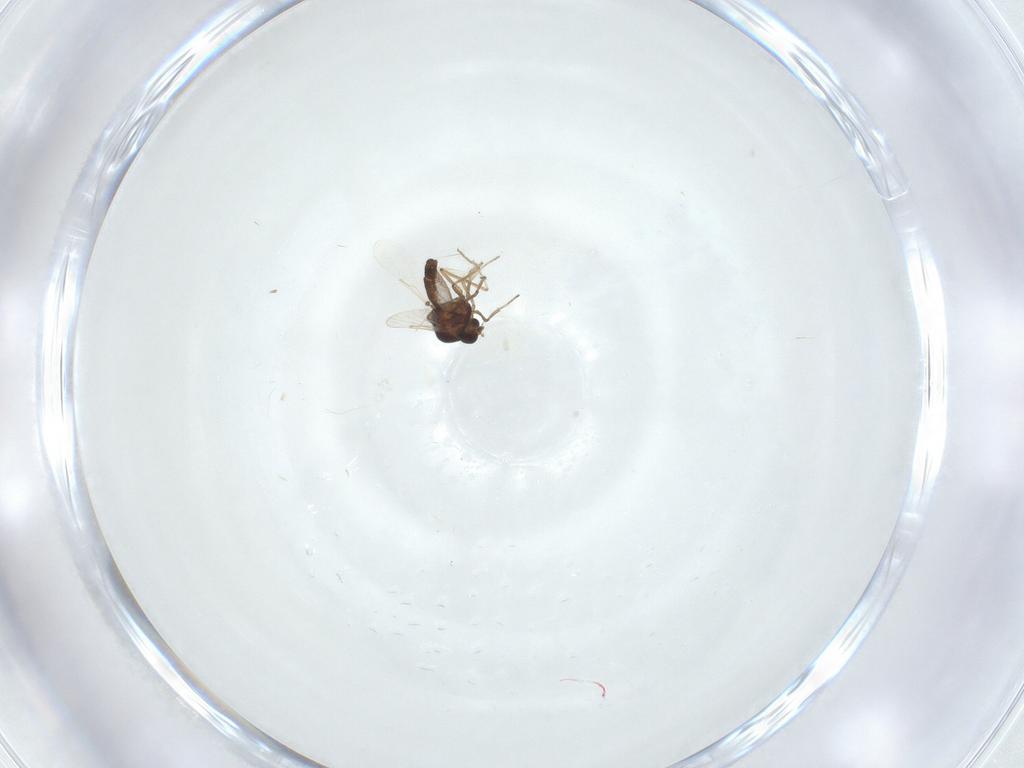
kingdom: Animalia
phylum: Arthropoda
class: Insecta
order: Diptera
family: Ceratopogonidae
